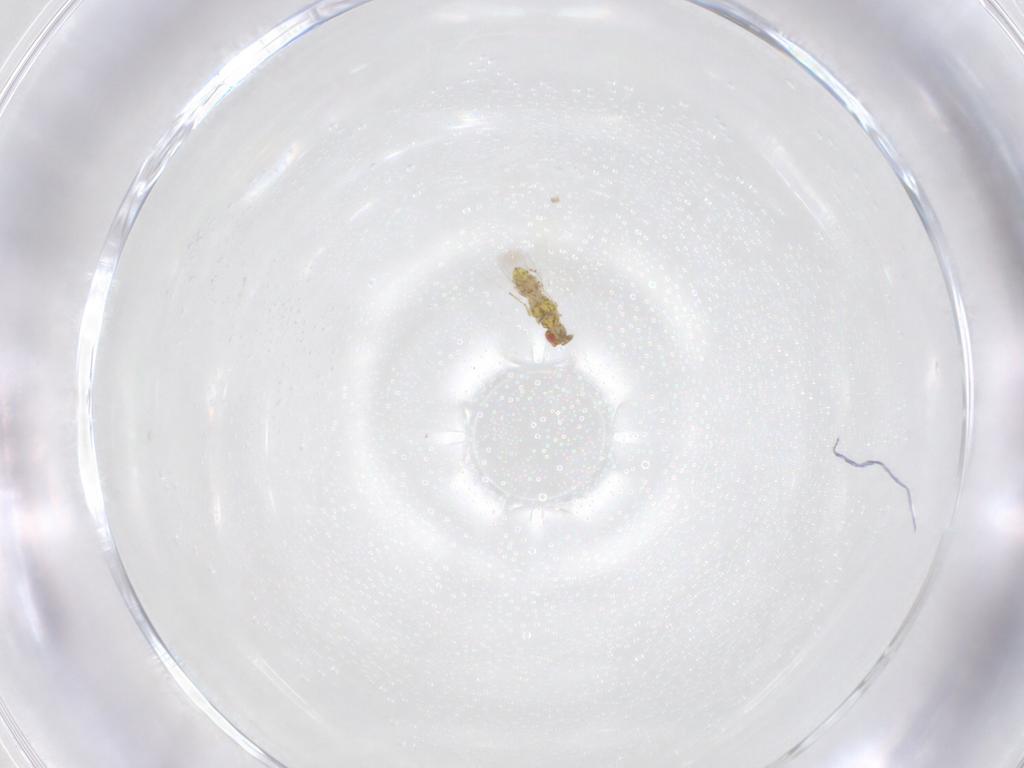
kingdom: Animalia
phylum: Arthropoda
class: Insecta
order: Hymenoptera
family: Eulophidae
